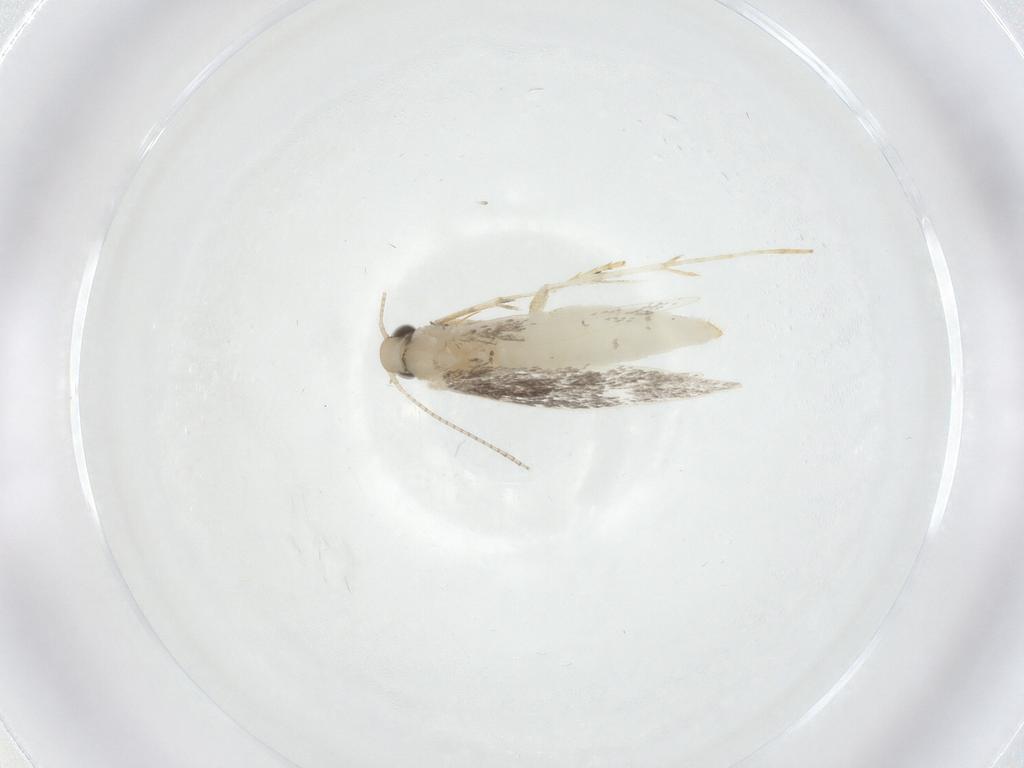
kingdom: Animalia
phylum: Arthropoda
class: Insecta
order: Lepidoptera
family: Geometridae
